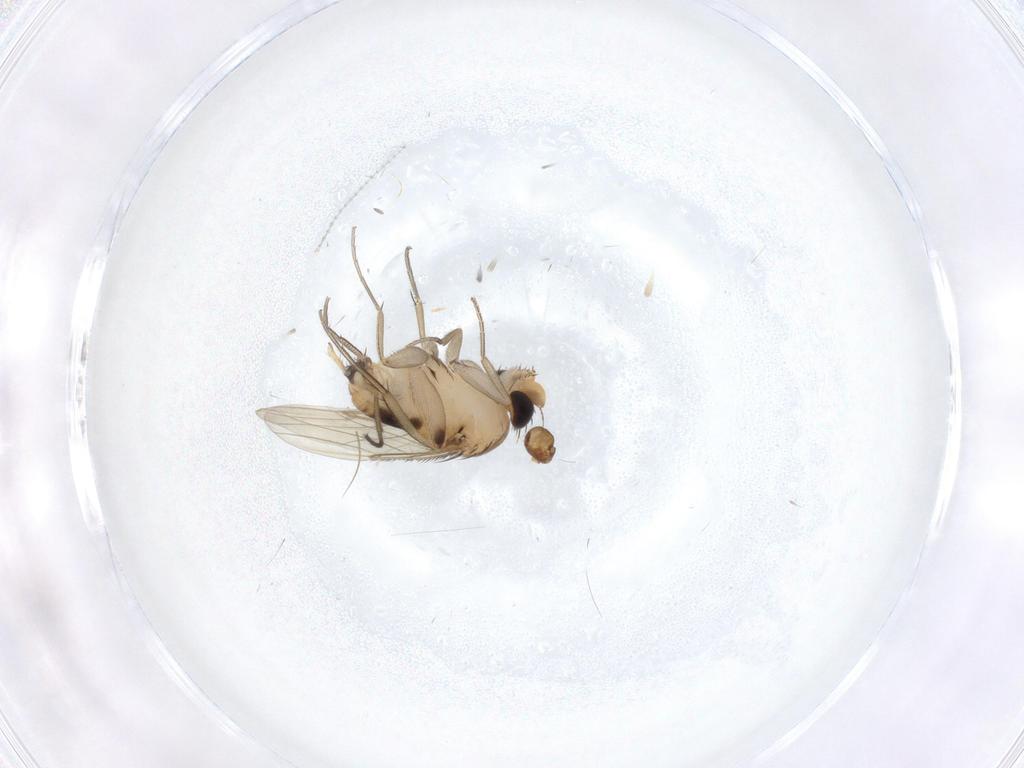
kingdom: Animalia
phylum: Arthropoda
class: Insecta
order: Diptera
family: Phoridae
